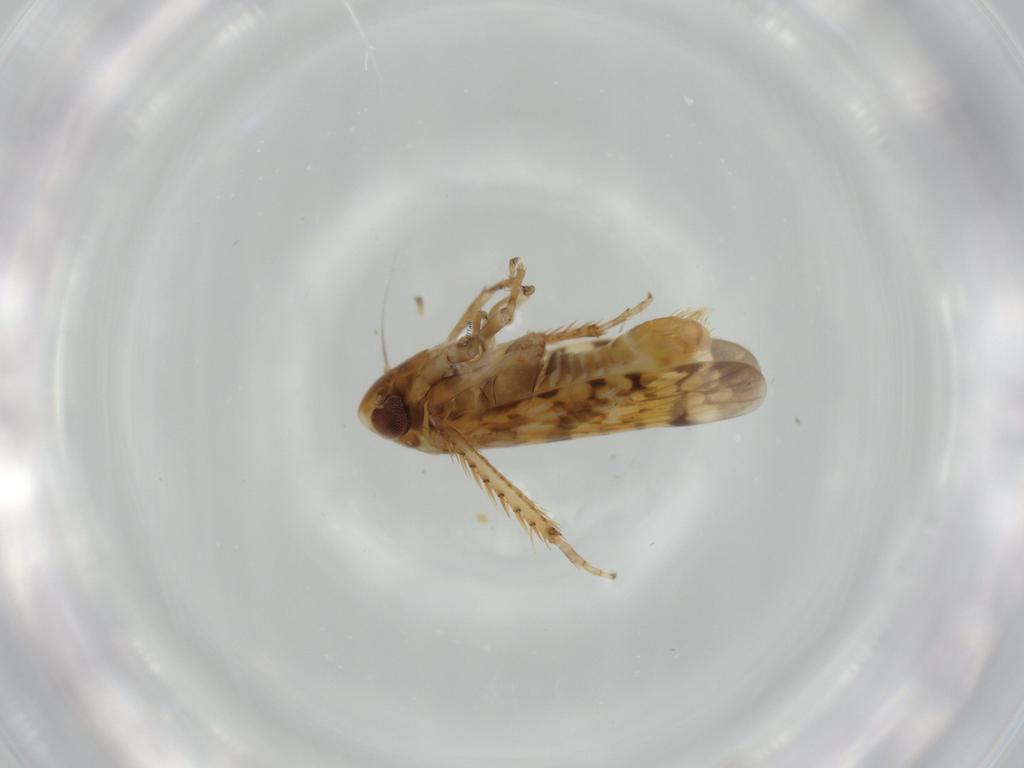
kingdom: Animalia
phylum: Arthropoda
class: Insecta
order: Hemiptera
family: Cicadellidae
